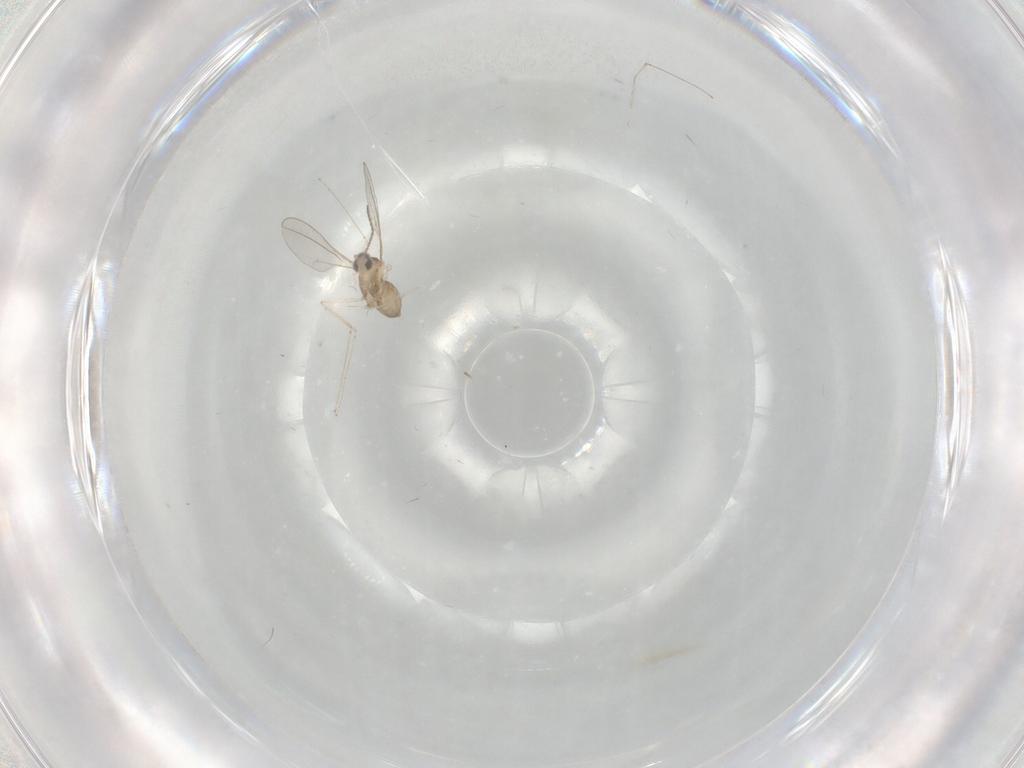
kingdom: Animalia
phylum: Arthropoda
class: Insecta
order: Diptera
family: Cecidomyiidae
